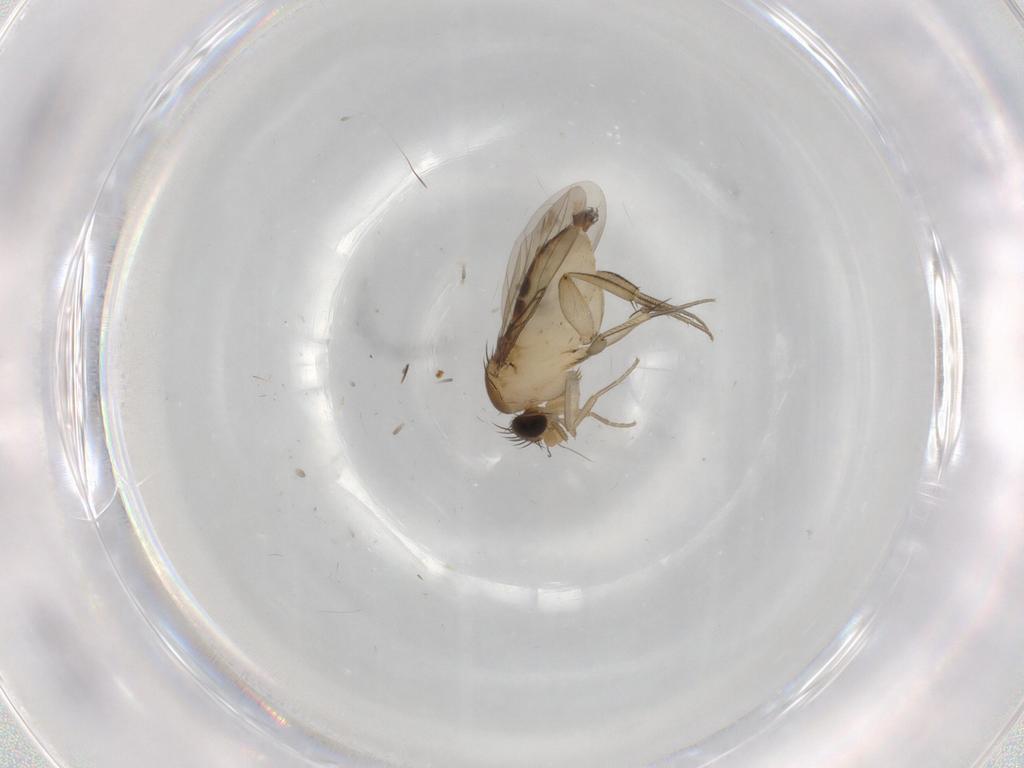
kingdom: Animalia
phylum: Arthropoda
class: Insecta
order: Diptera
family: Phoridae
